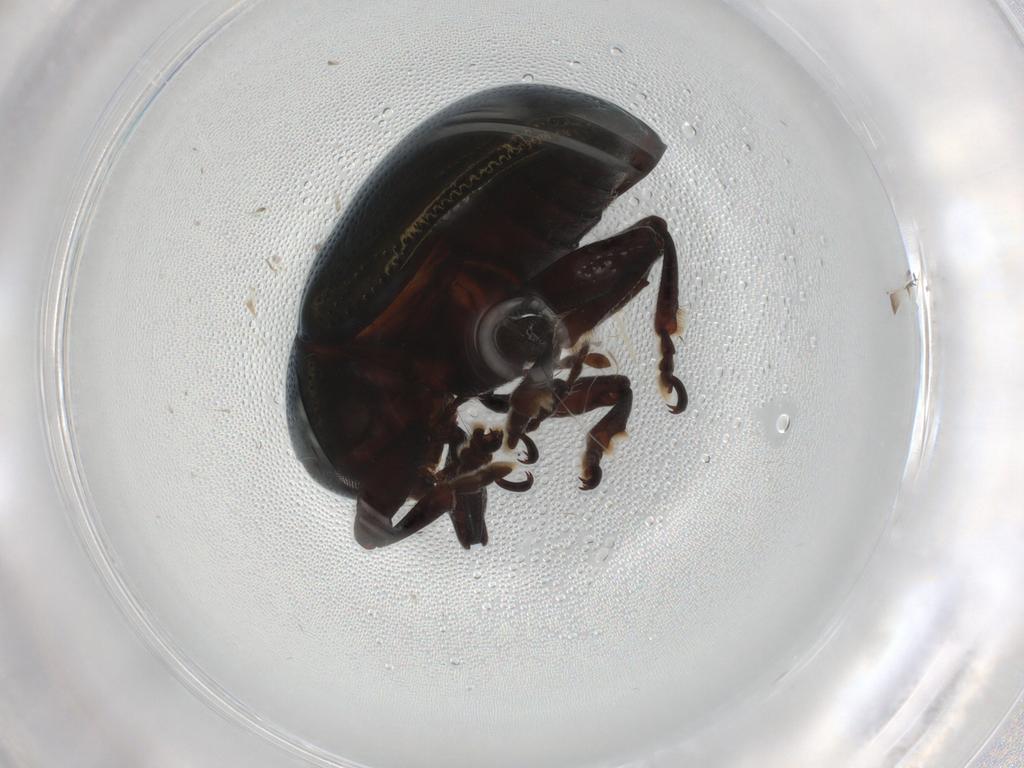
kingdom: Animalia
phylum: Arthropoda
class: Insecta
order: Coleoptera
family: Chrysomelidae
